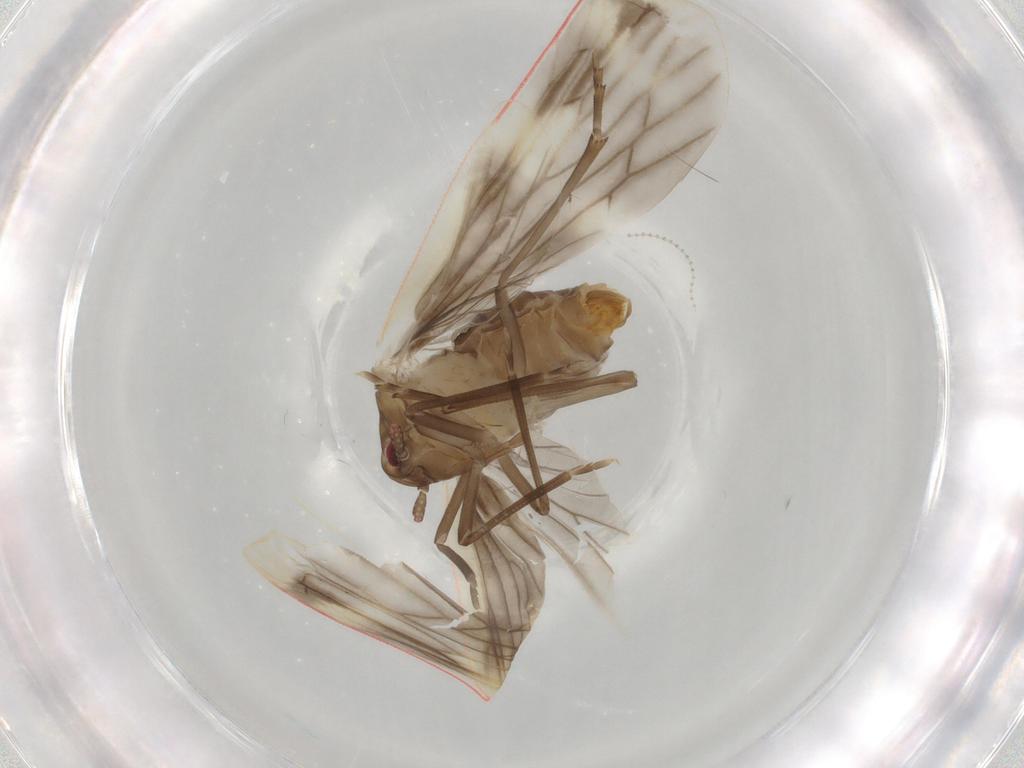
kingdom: Animalia
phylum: Arthropoda
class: Insecta
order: Hemiptera
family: Derbidae
